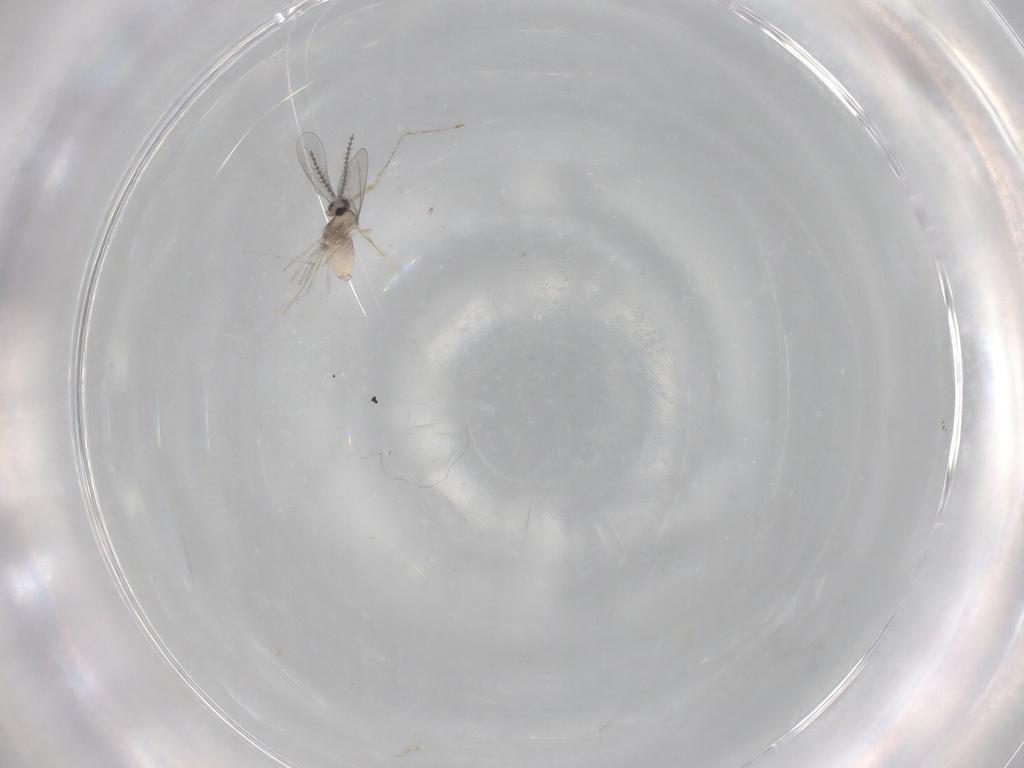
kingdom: Animalia
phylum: Arthropoda
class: Insecta
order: Diptera
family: Cecidomyiidae
